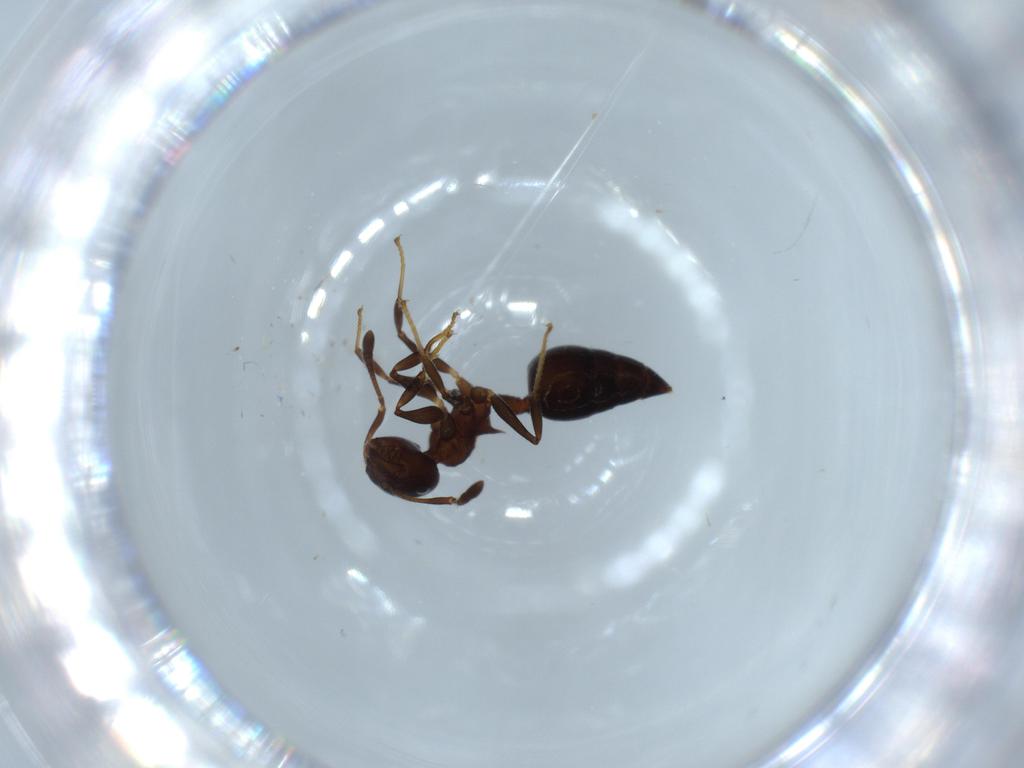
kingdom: Animalia
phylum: Arthropoda
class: Insecta
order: Hymenoptera
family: Formicidae
